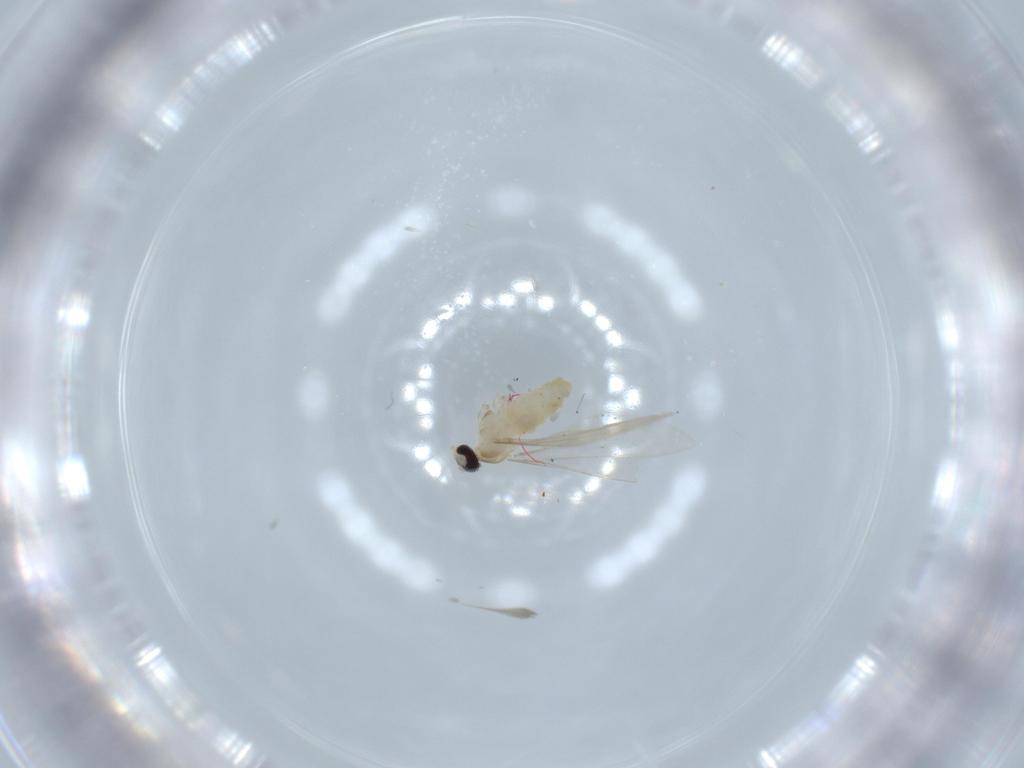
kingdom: Animalia
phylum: Arthropoda
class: Insecta
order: Diptera
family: Cecidomyiidae
